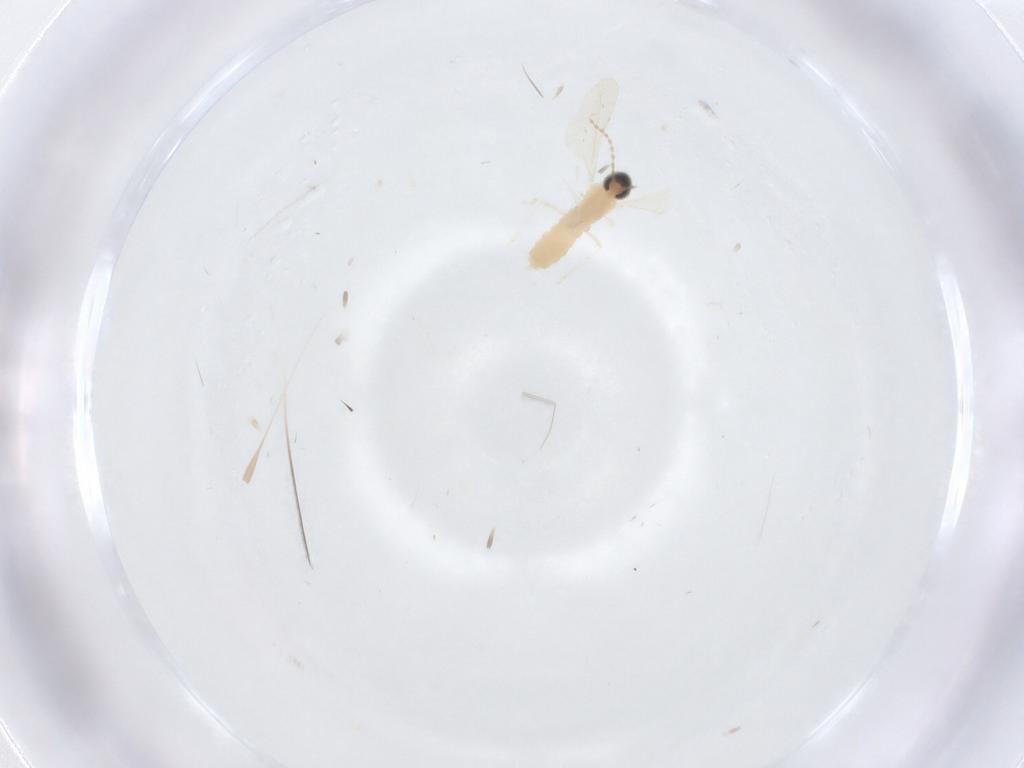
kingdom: Animalia
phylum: Arthropoda
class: Insecta
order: Diptera
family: Cecidomyiidae
